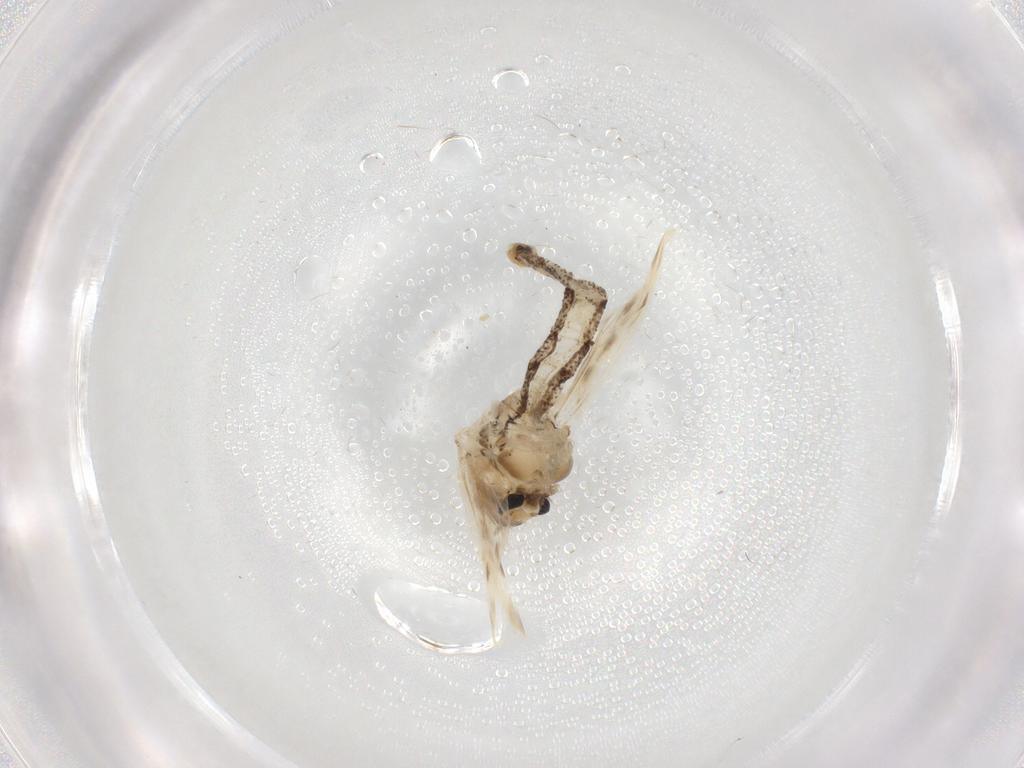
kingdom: Animalia
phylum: Arthropoda
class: Insecta
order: Diptera
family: Chaoboridae
